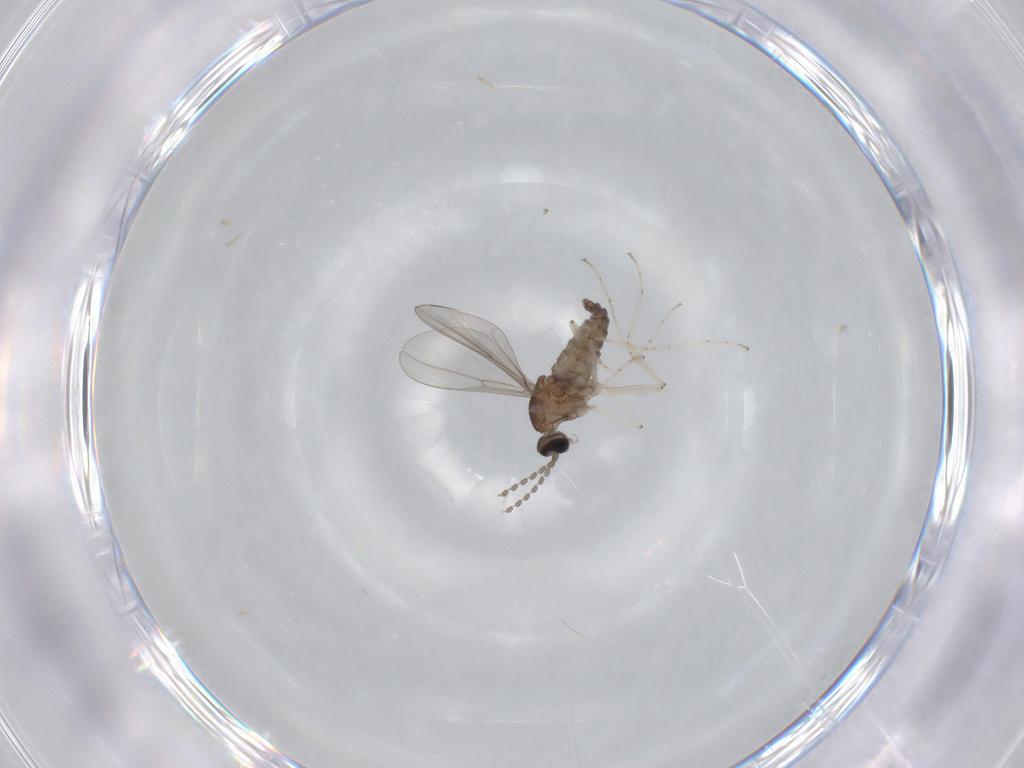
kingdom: Animalia
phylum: Arthropoda
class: Insecta
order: Diptera
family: Cecidomyiidae
